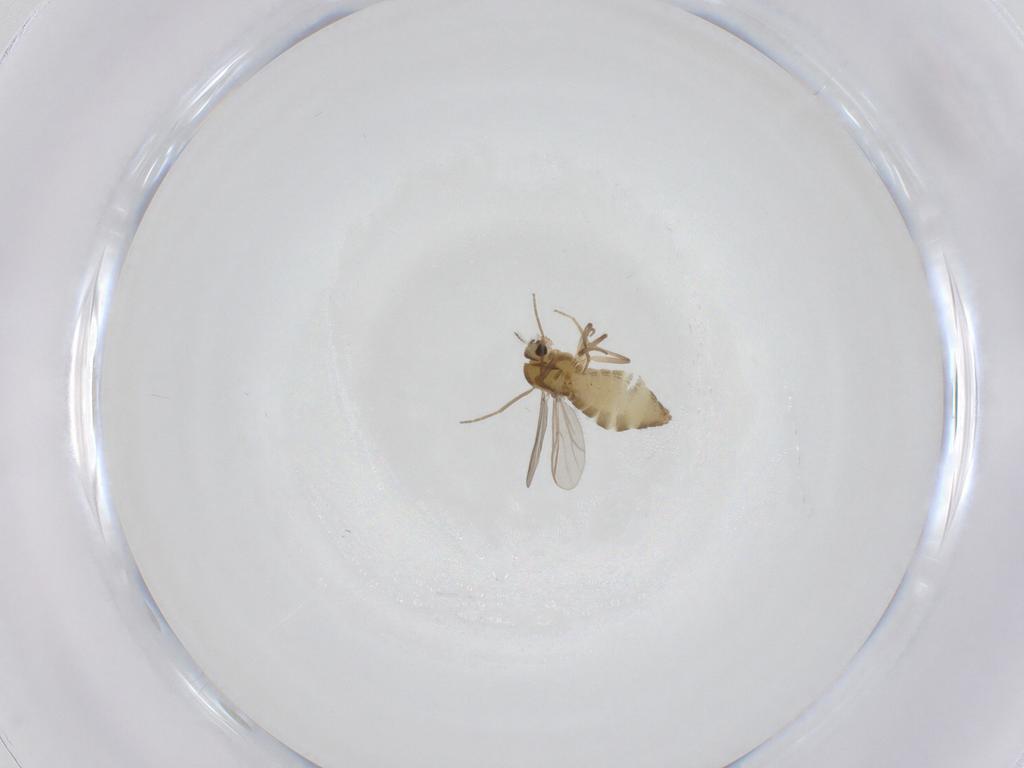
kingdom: Animalia
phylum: Arthropoda
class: Insecta
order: Diptera
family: Chironomidae
